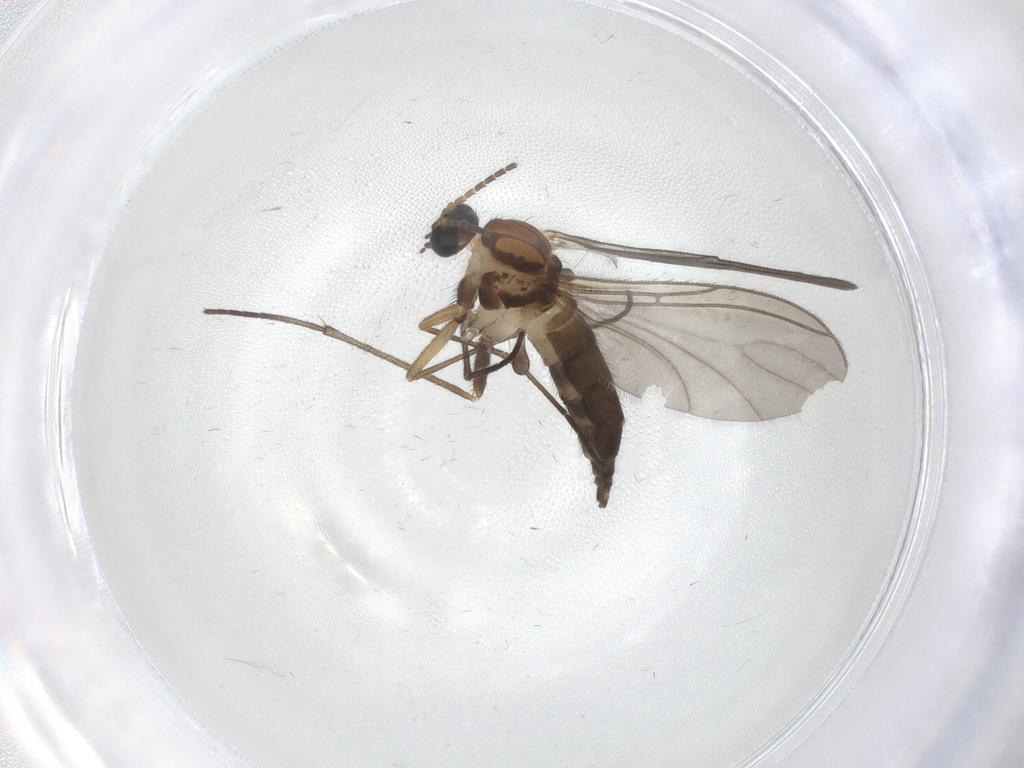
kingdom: Animalia
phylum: Arthropoda
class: Insecta
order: Diptera
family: Sciaridae
